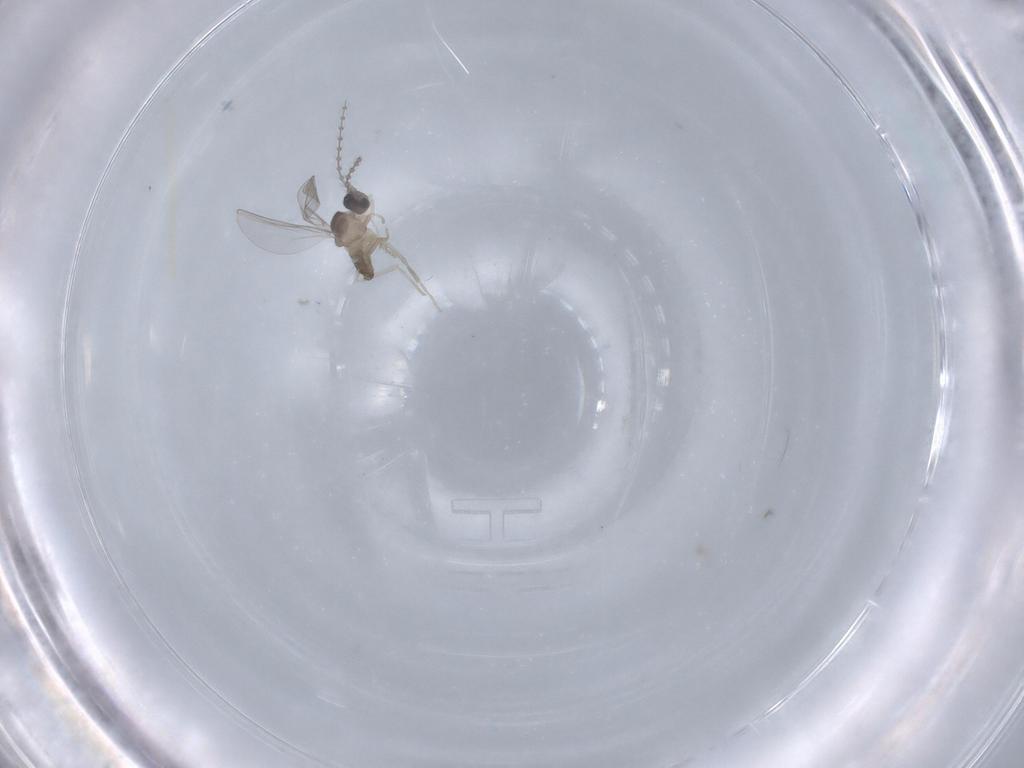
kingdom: Animalia
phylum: Arthropoda
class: Insecta
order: Diptera
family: Cecidomyiidae
